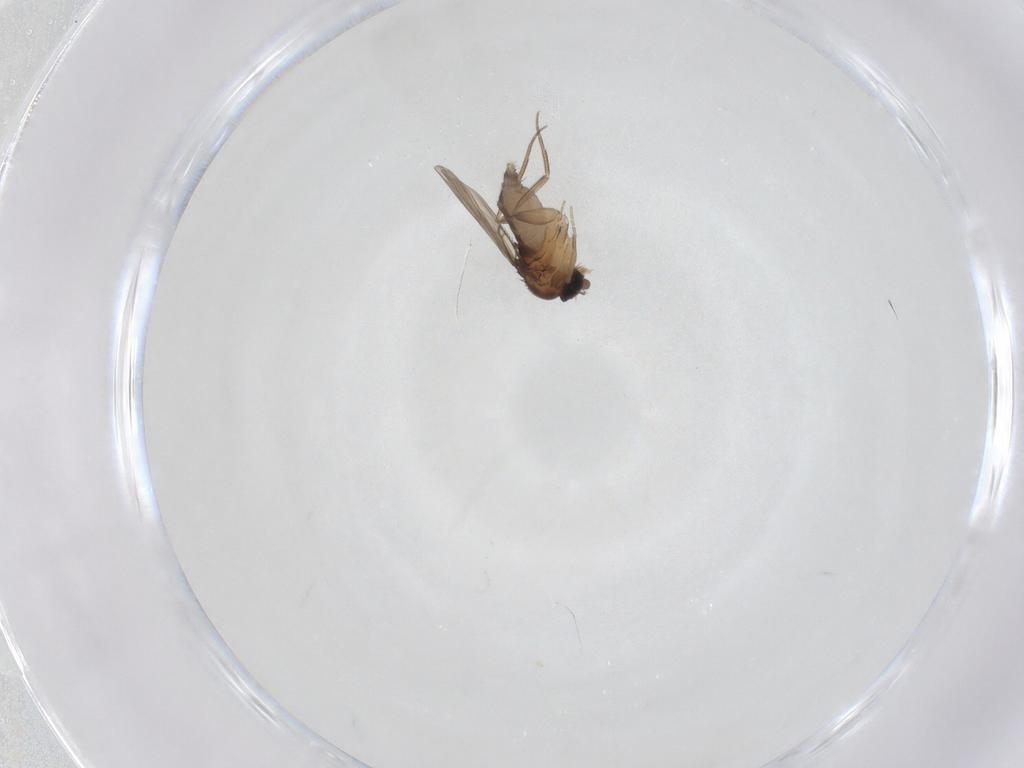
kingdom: Animalia
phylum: Arthropoda
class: Insecta
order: Diptera
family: Phoridae
